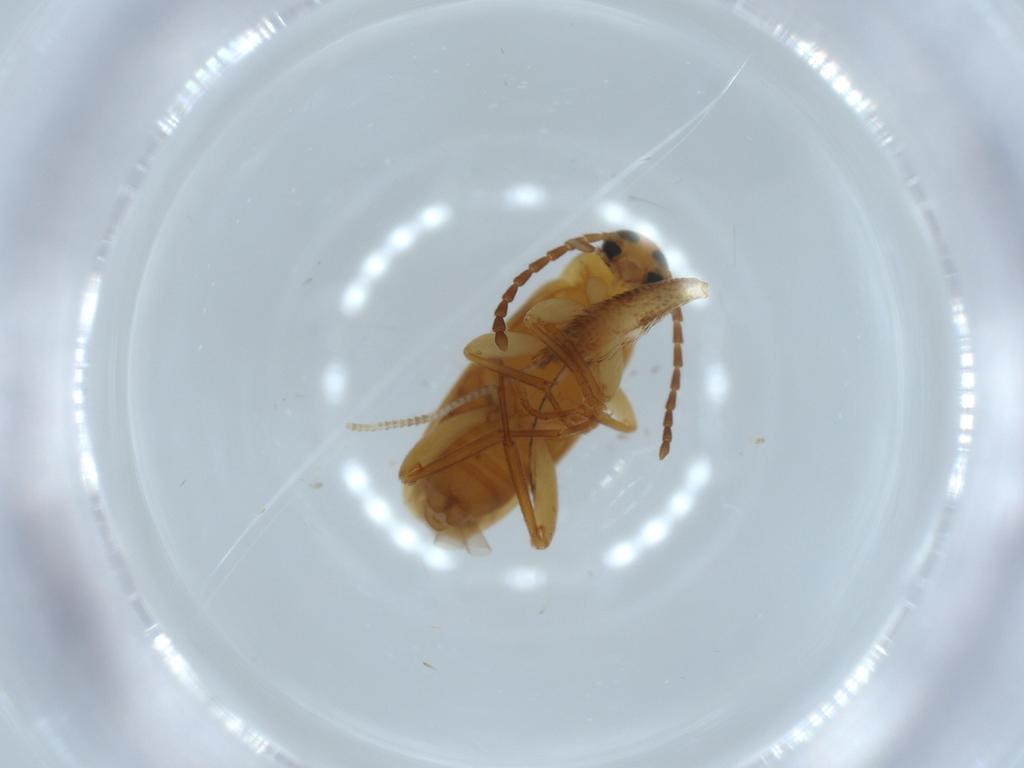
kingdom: Animalia
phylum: Arthropoda
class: Insecta
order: Coleoptera
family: Scraptiidae
